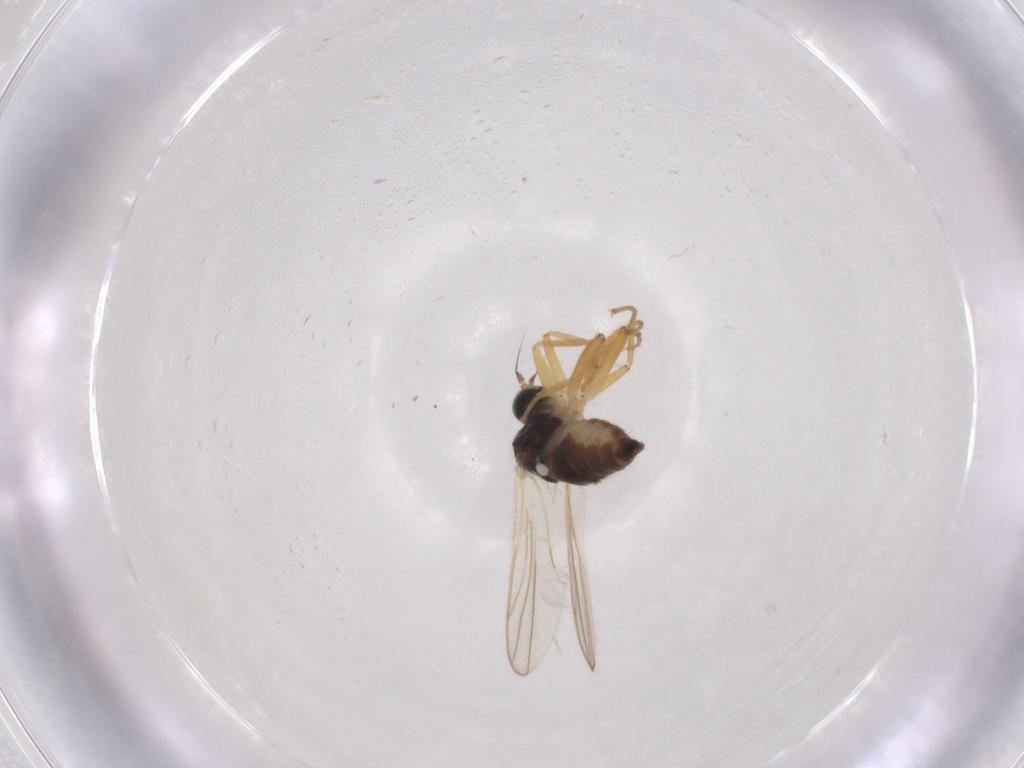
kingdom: Animalia
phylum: Arthropoda
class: Insecta
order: Diptera
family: Hybotidae
